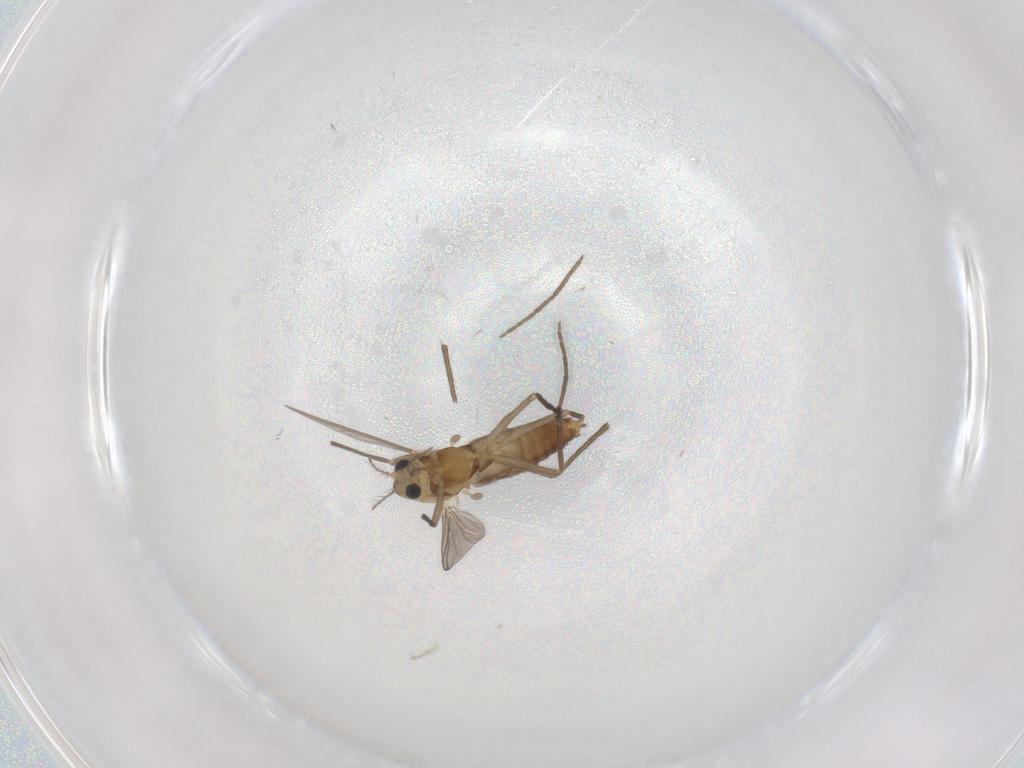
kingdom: Animalia
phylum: Arthropoda
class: Insecta
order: Diptera
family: Chironomidae
